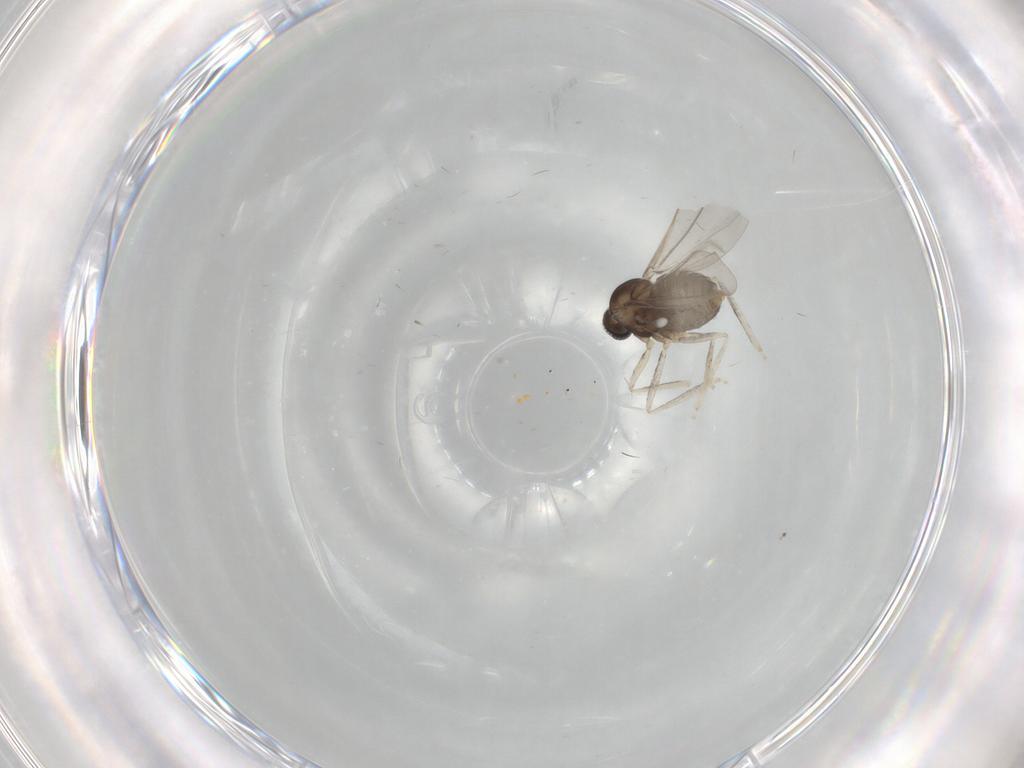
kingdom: Animalia
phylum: Arthropoda
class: Insecta
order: Diptera
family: Cecidomyiidae
